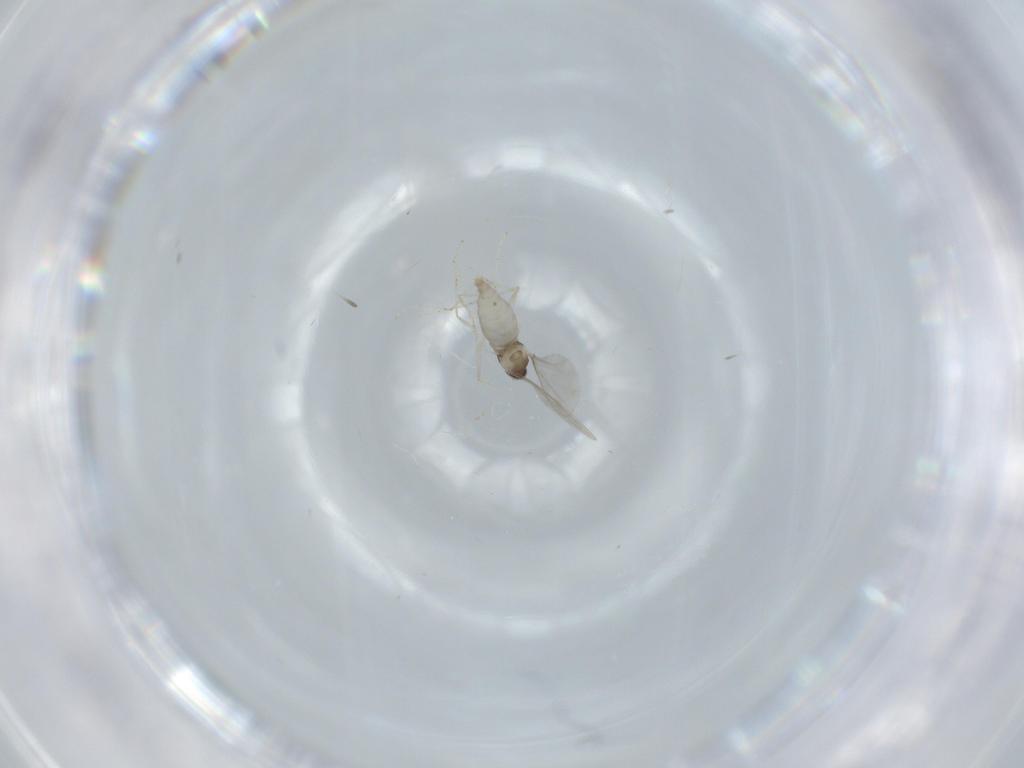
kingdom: Animalia
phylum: Arthropoda
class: Insecta
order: Diptera
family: Cecidomyiidae
